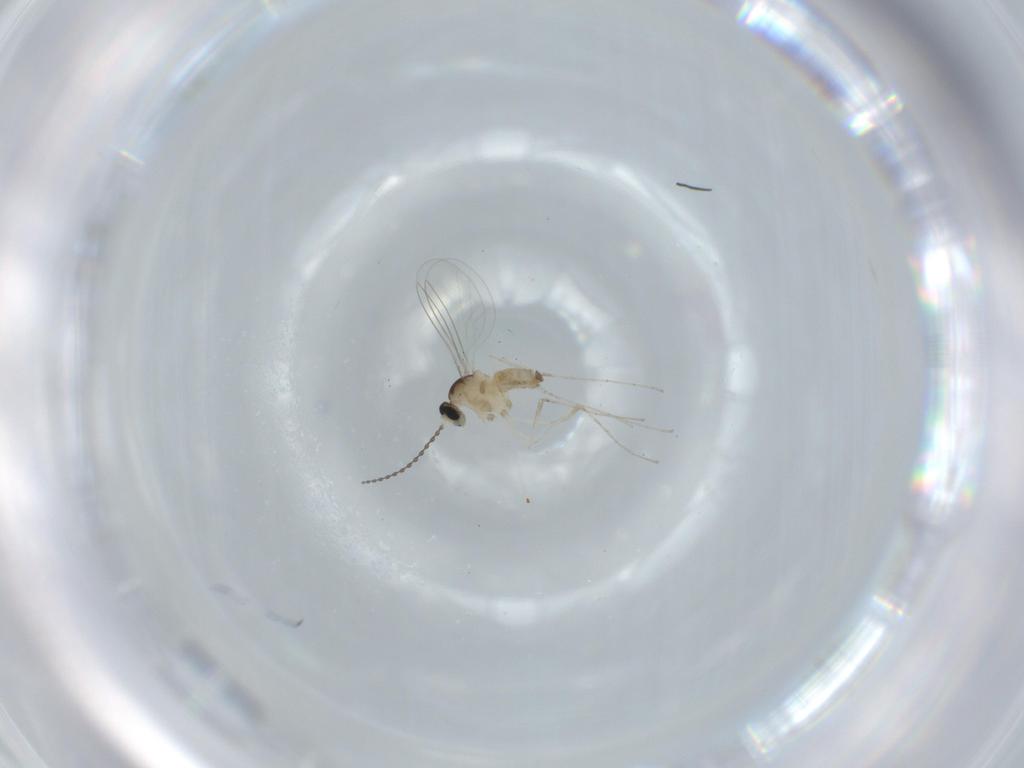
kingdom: Animalia
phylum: Arthropoda
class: Insecta
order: Diptera
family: Cecidomyiidae
